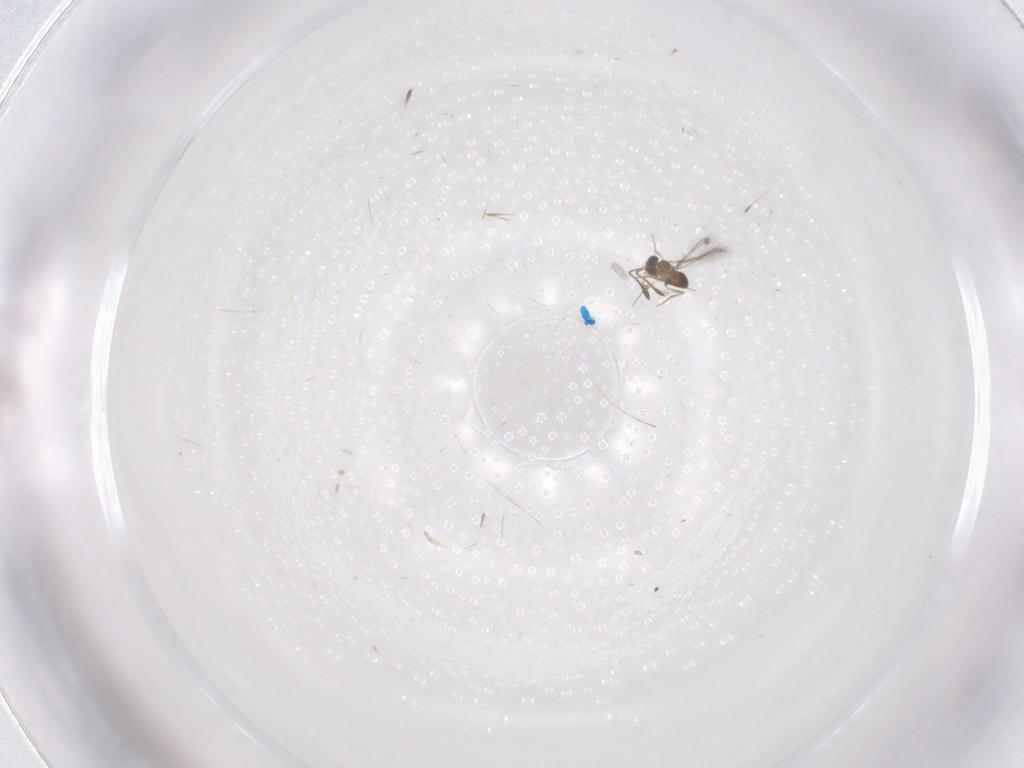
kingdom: Animalia
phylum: Arthropoda
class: Insecta
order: Hymenoptera
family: Mymaridae
